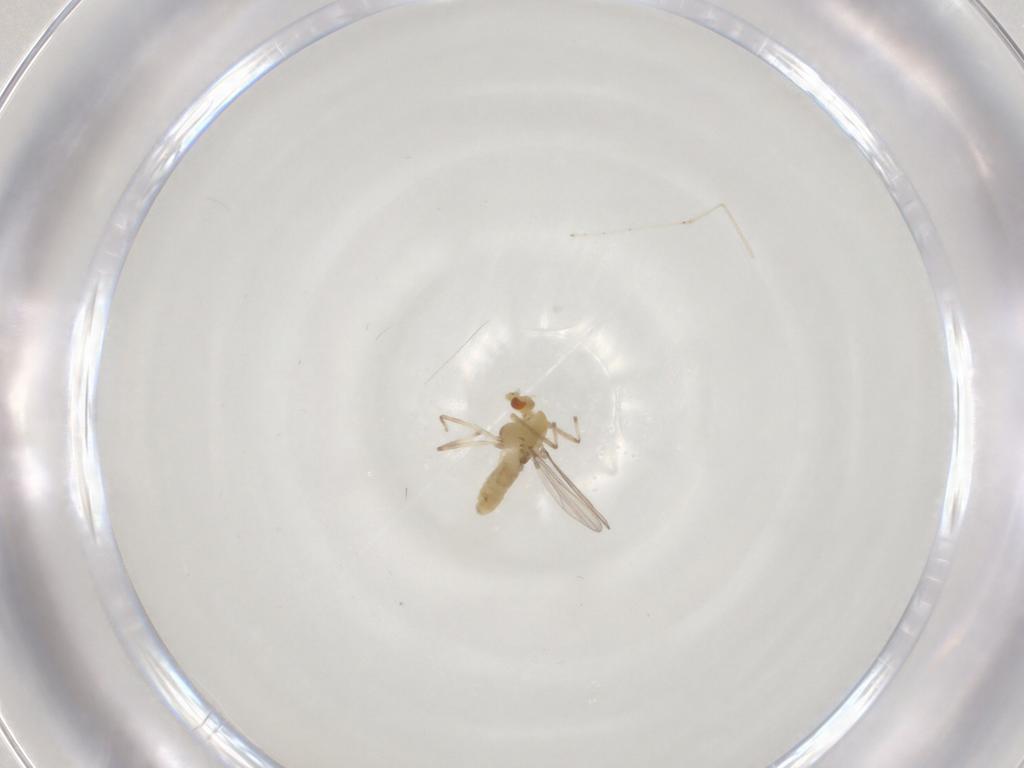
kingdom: Animalia
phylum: Arthropoda
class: Insecta
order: Diptera
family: Chironomidae
